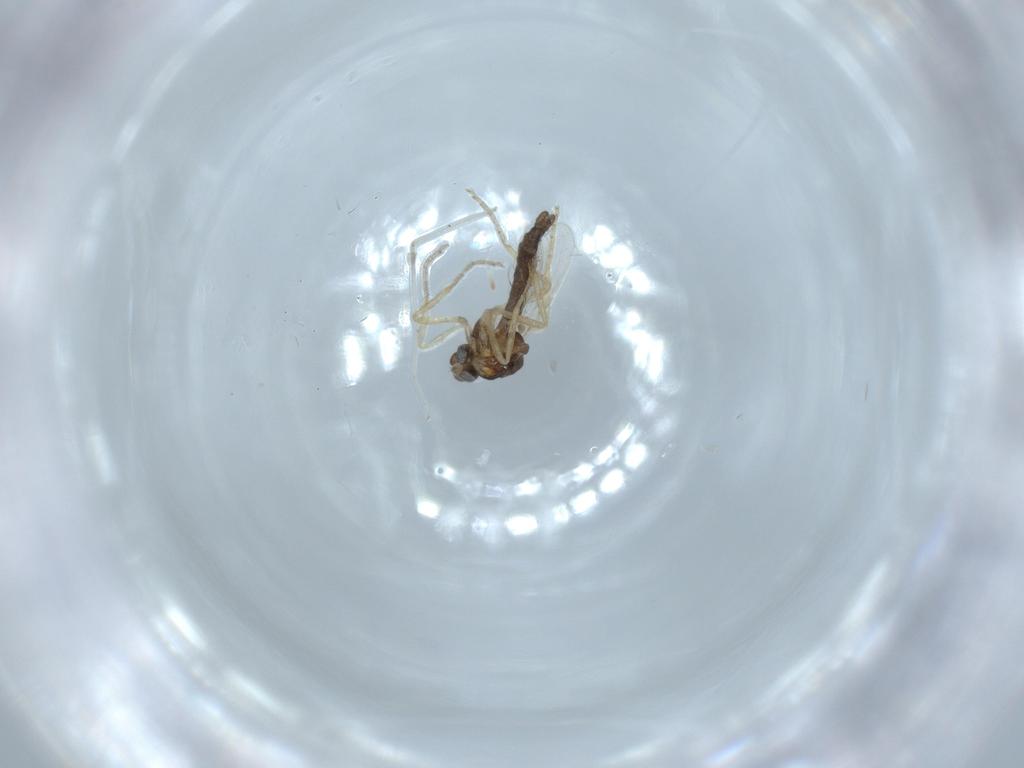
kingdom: Animalia
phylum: Arthropoda
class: Insecta
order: Diptera
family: Ceratopogonidae
